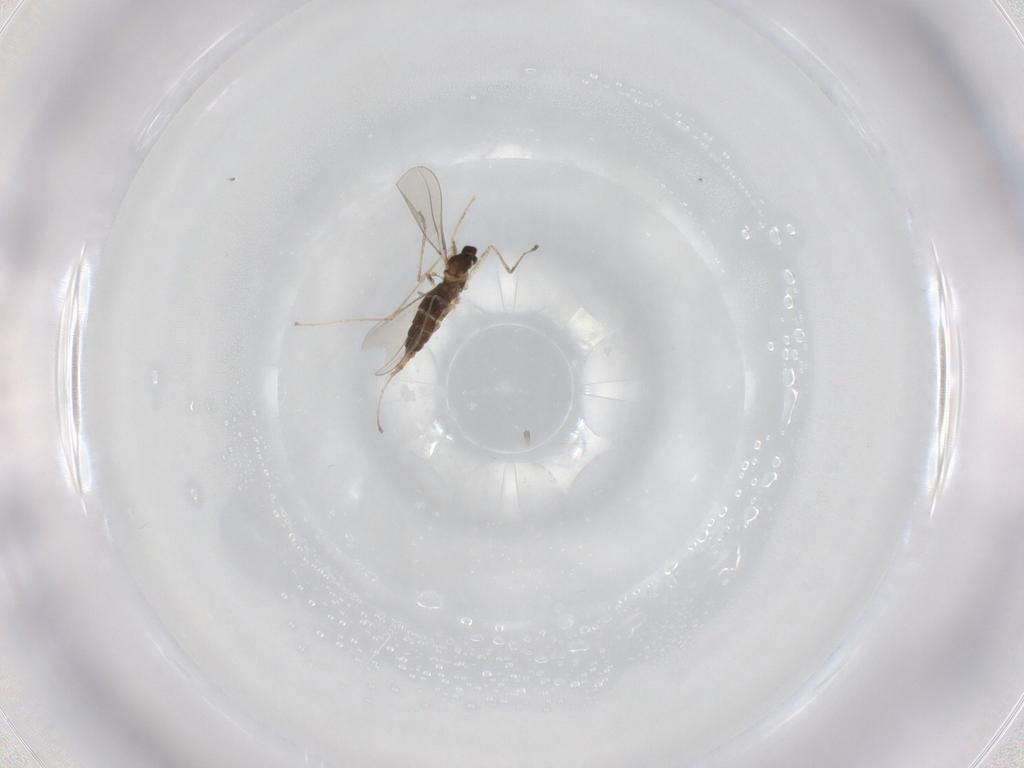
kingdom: Animalia
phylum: Arthropoda
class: Insecta
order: Diptera
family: Cecidomyiidae
